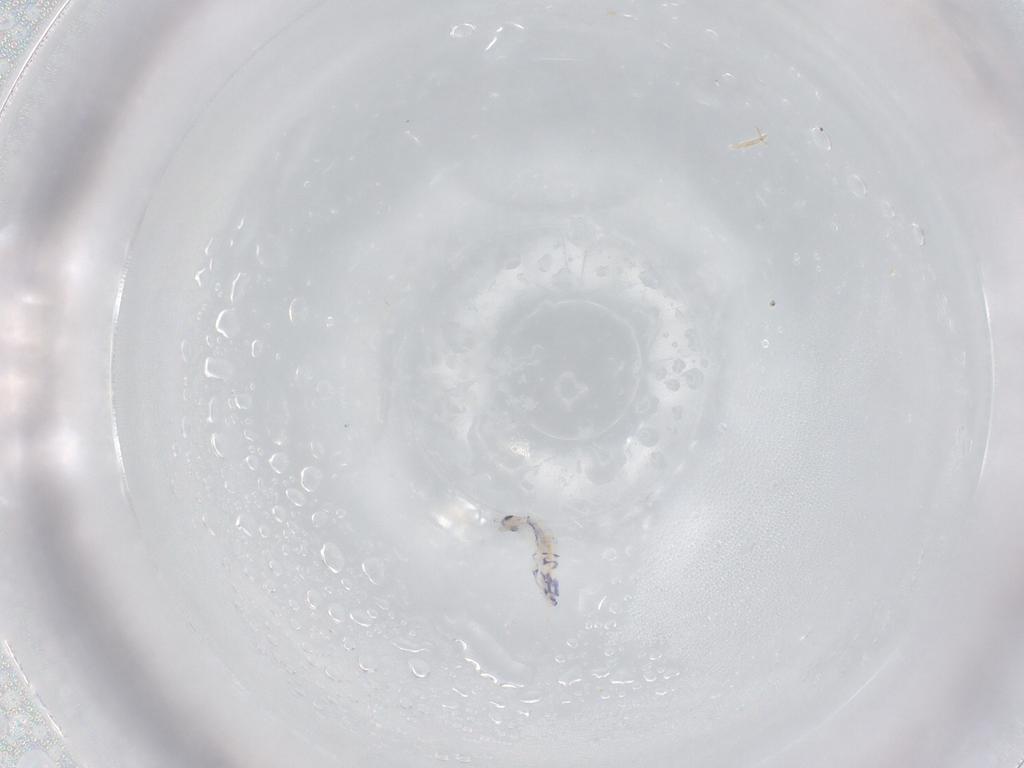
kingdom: Animalia
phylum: Arthropoda
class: Collembola
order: Entomobryomorpha
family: Entomobryidae
